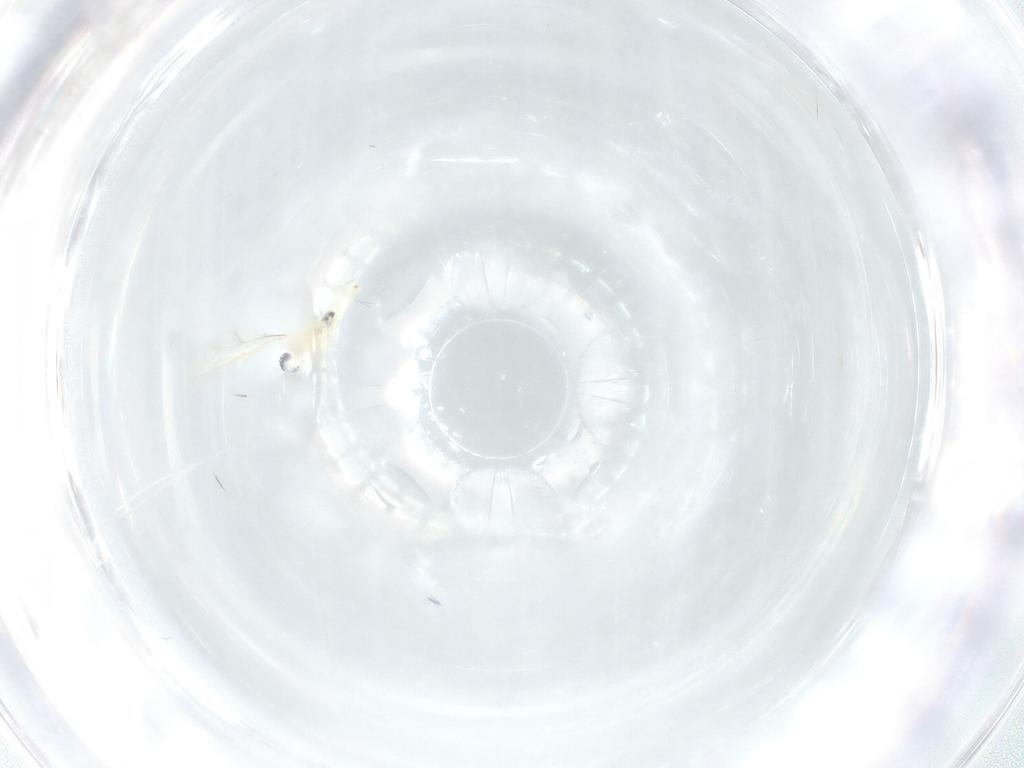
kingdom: Animalia
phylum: Arthropoda
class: Insecta
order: Diptera
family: Cecidomyiidae
